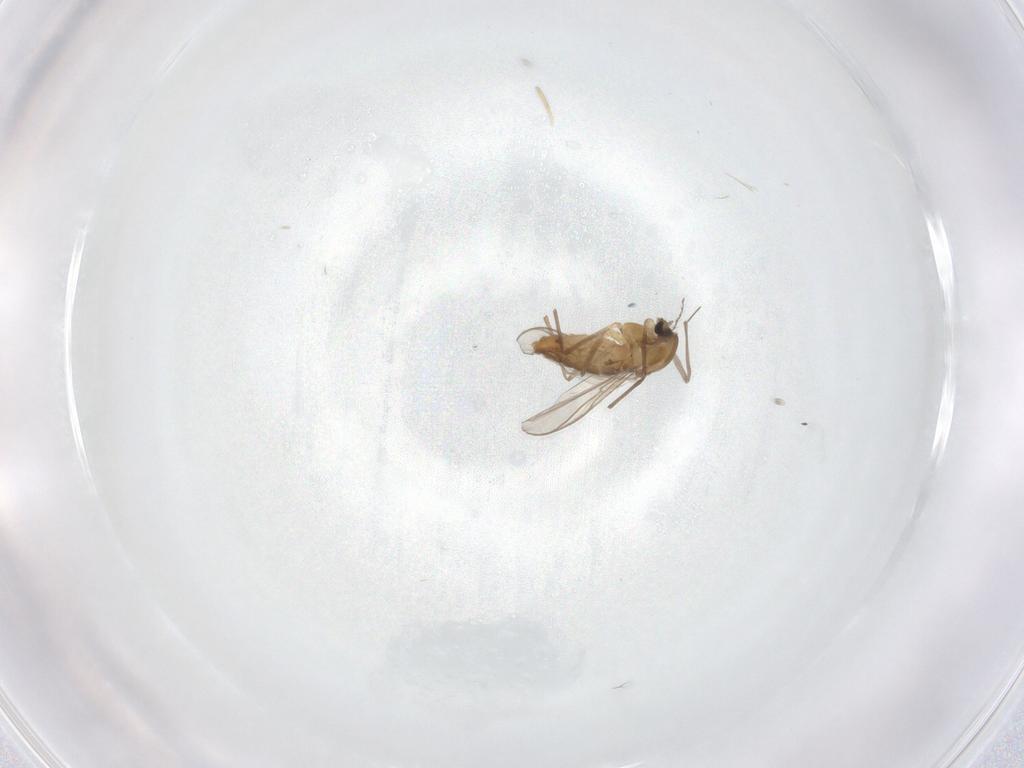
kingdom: Animalia
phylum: Arthropoda
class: Insecta
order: Diptera
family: Chironomidae
